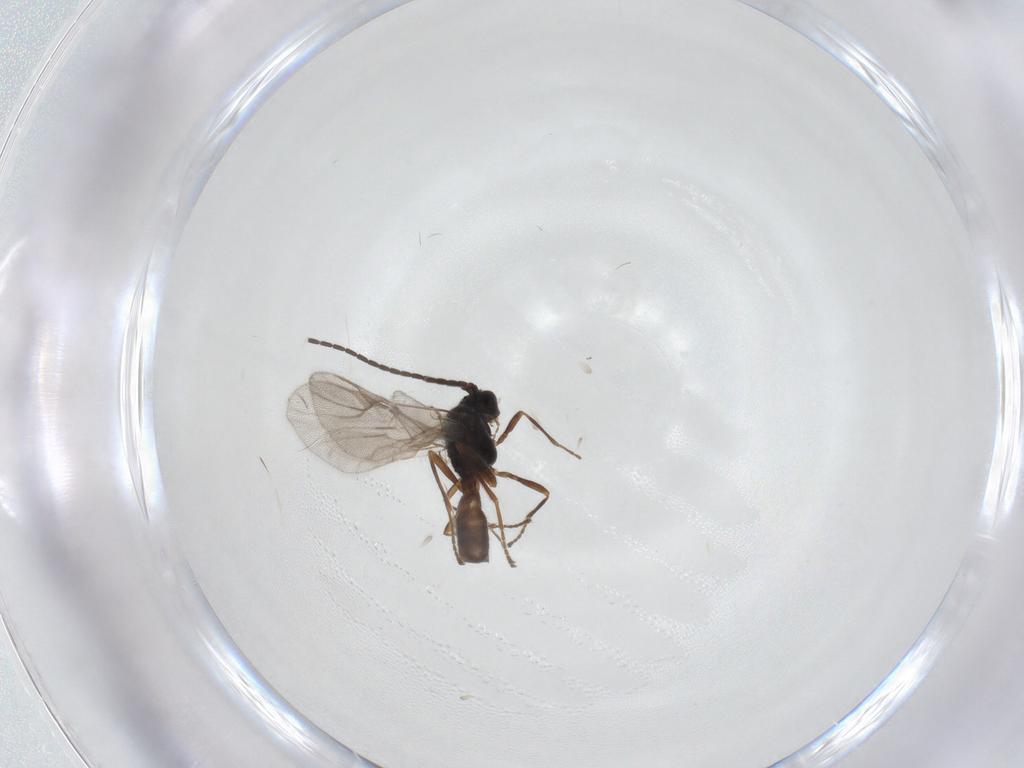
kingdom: Animalia
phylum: Arthropoda
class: Insecta
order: Hymenoptera
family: Braconidae
